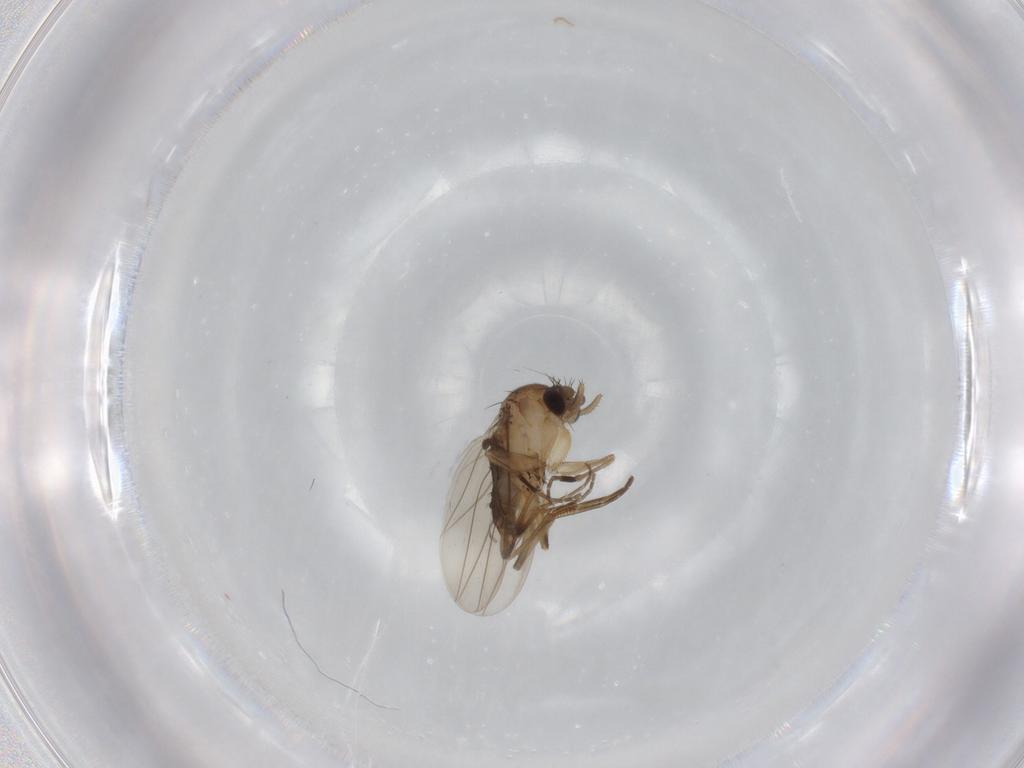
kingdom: Animalia
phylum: Arthropoda
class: Insecta
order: Diptera
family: Phoridae
